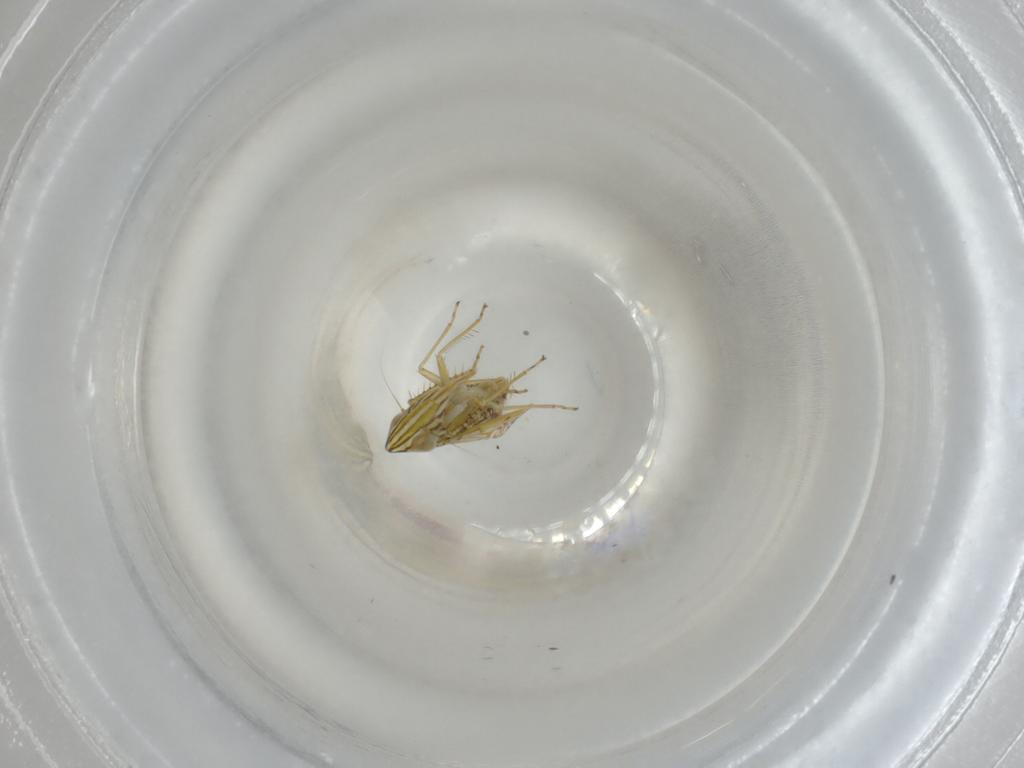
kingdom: Animalia
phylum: Arthropoda
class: Insecta
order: Hemiptera
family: Cicadellidae
